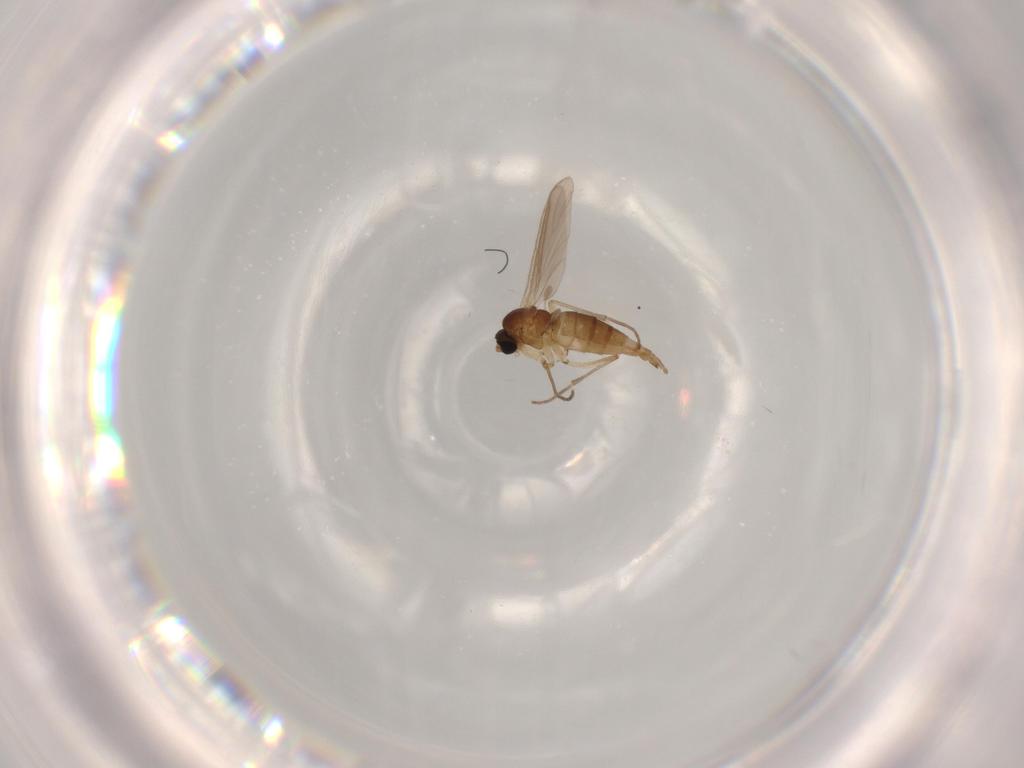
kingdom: Animalia
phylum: Arthropoda
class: Insecta
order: Diptera
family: Sciaridae
